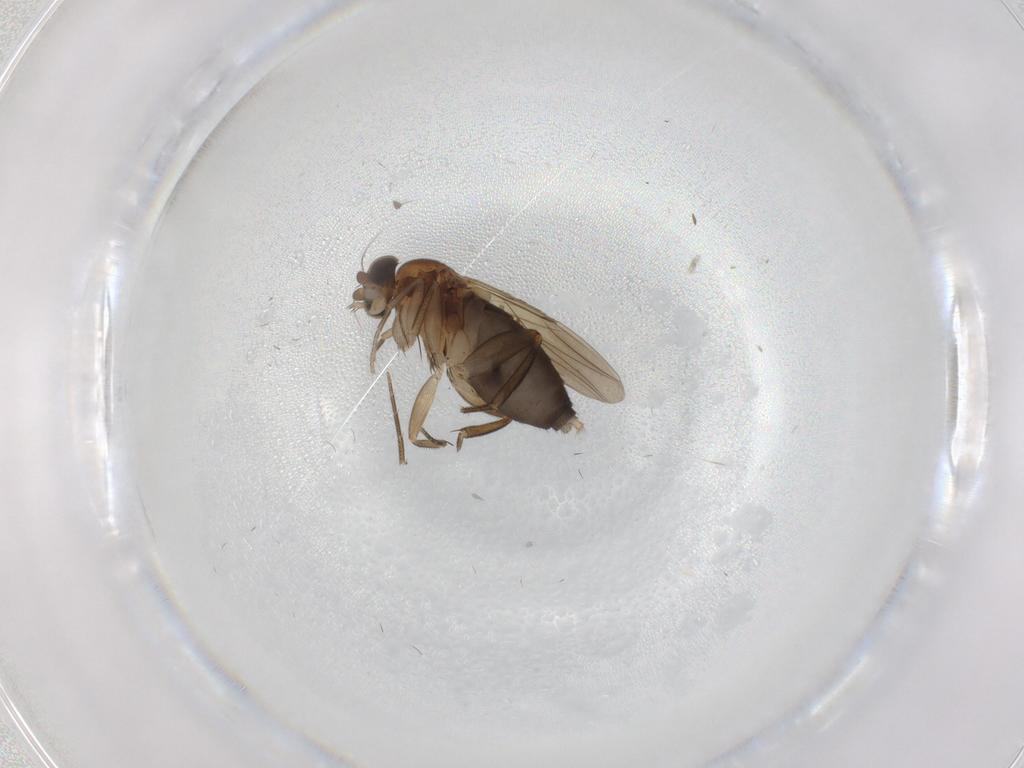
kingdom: Animalia
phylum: Arthropoda
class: Insecta
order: Diptera
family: Phoridae
